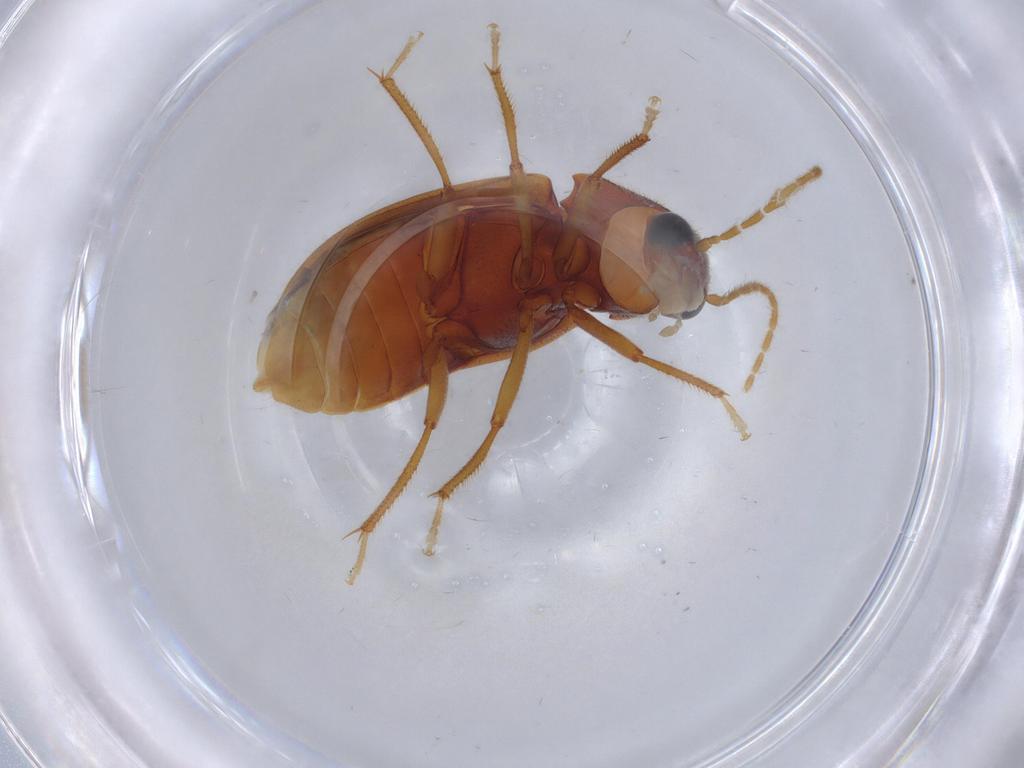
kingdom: Animalia
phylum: Arthropoda
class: Insecta
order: Coleoptera
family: Ptilodactylidae
